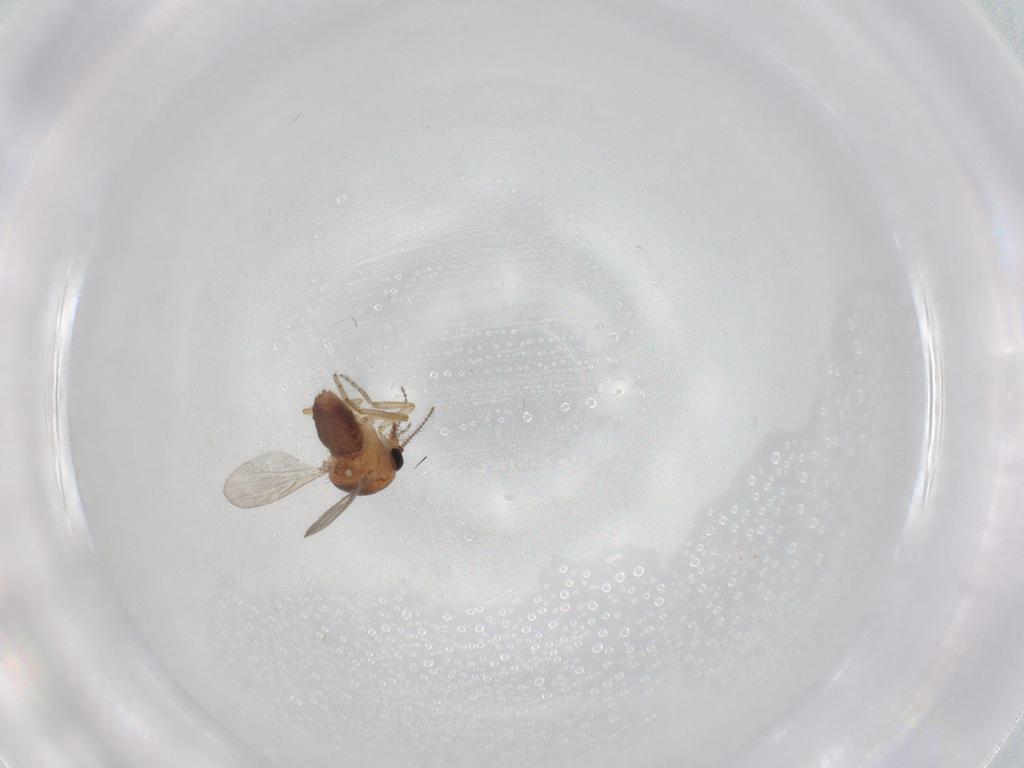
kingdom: Animalia
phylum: Arthropoda
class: Insecta
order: Diptera
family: Ceratopogonidae
